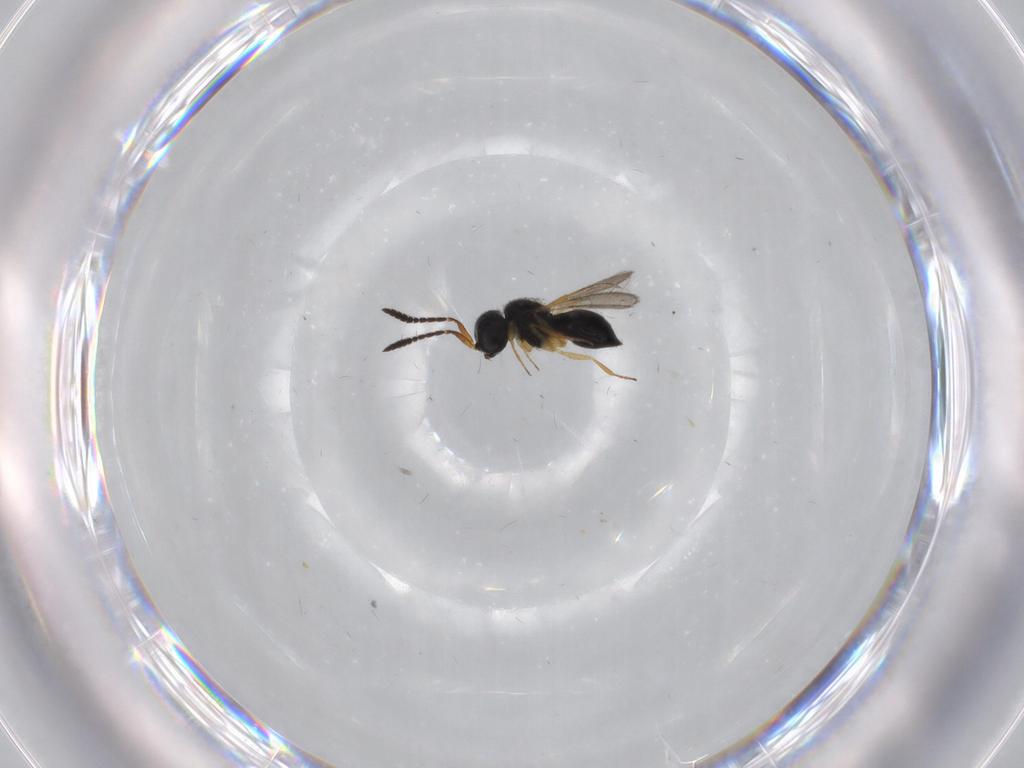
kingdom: Animalia
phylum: Arthropoda
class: Insecta
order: Hymenoptera
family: Scelionidae
